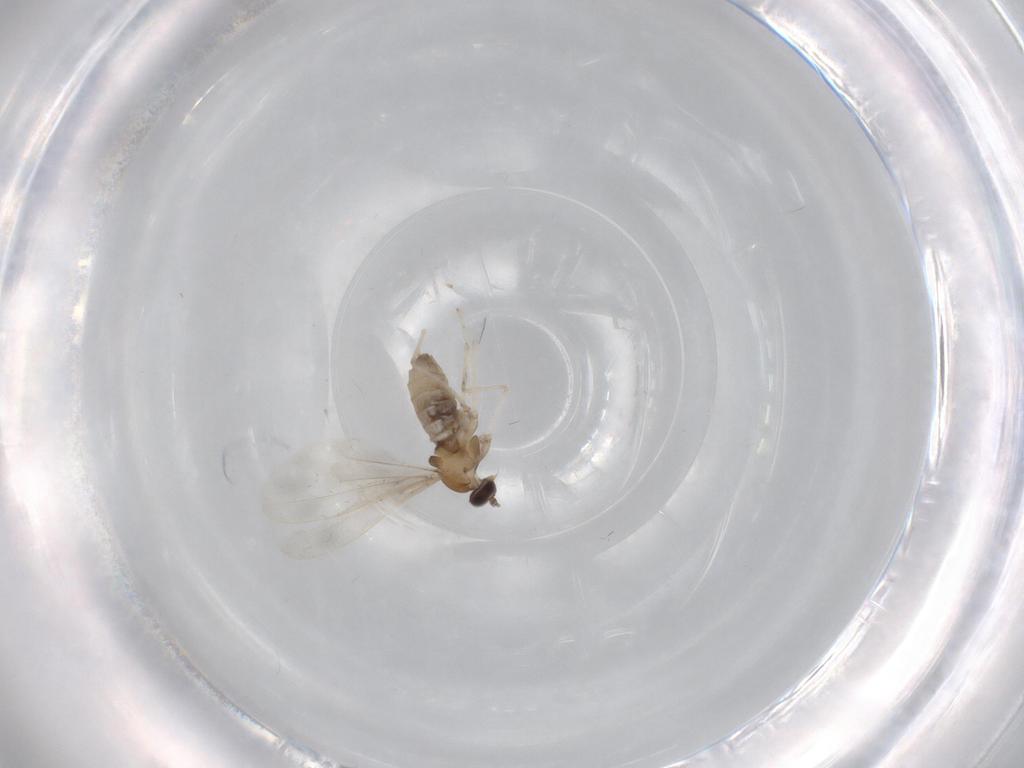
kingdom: Animalia
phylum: Arthropoda
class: Insecta
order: Diptera
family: Cecidomyiidae
